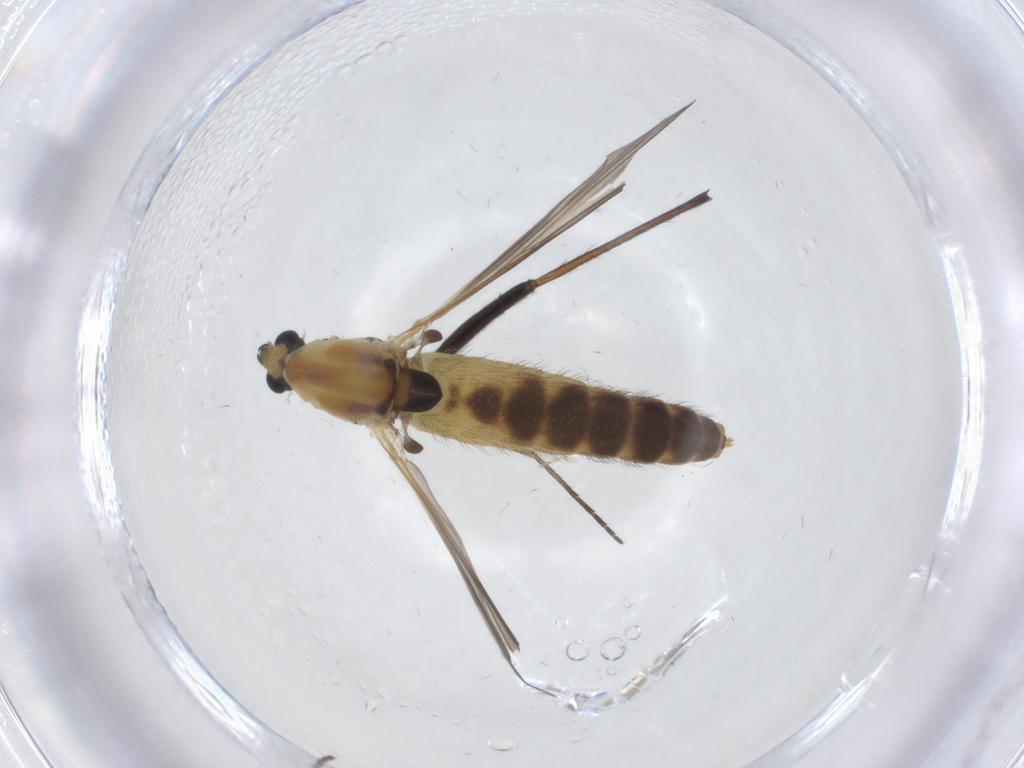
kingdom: Animalia
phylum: Arthropoda
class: Insecta
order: Diptera
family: Chironomidae
